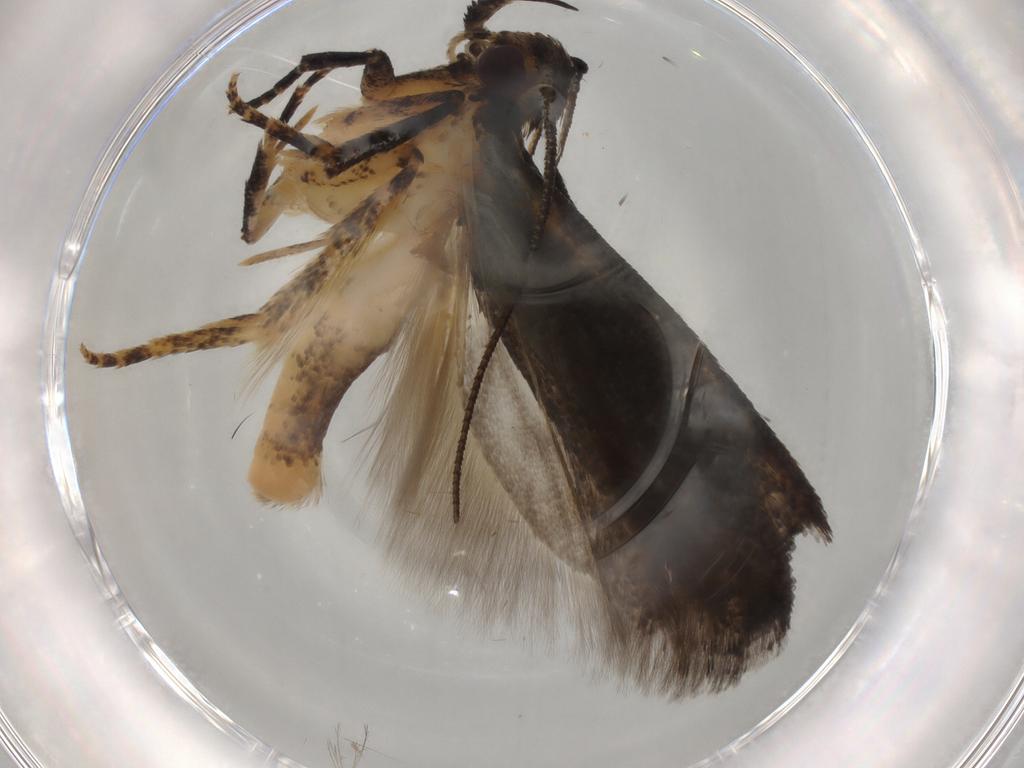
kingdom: Animalia
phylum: Arthropoda
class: Insecta
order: Lepidoptera
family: Gelechiidae
